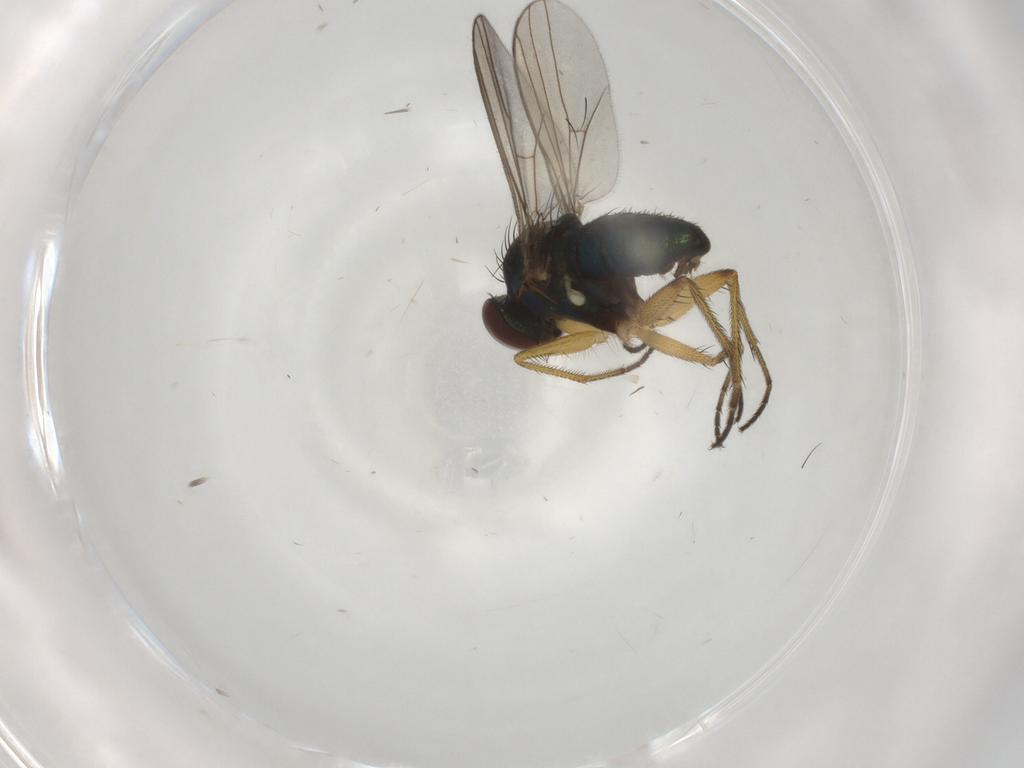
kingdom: Animalia
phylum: Arthropoda
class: Insecta
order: Diptera
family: Dolichopodidae
